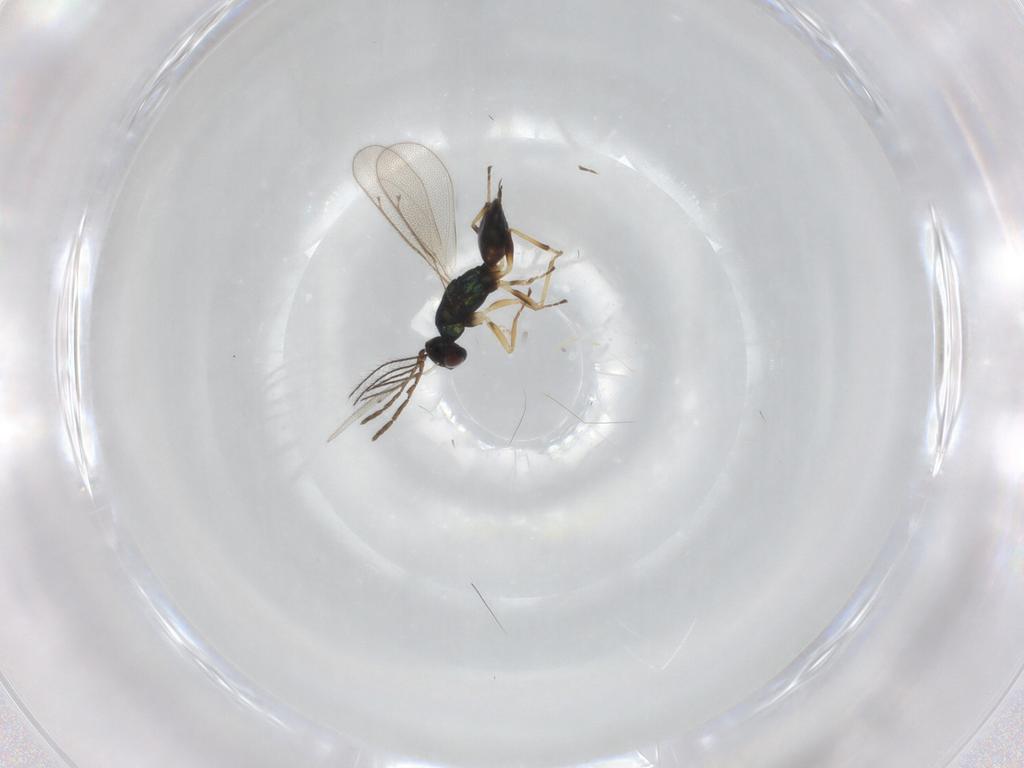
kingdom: Animalia
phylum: Arthropoda
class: Insecta
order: Hymenoptera
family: Eulophidae
